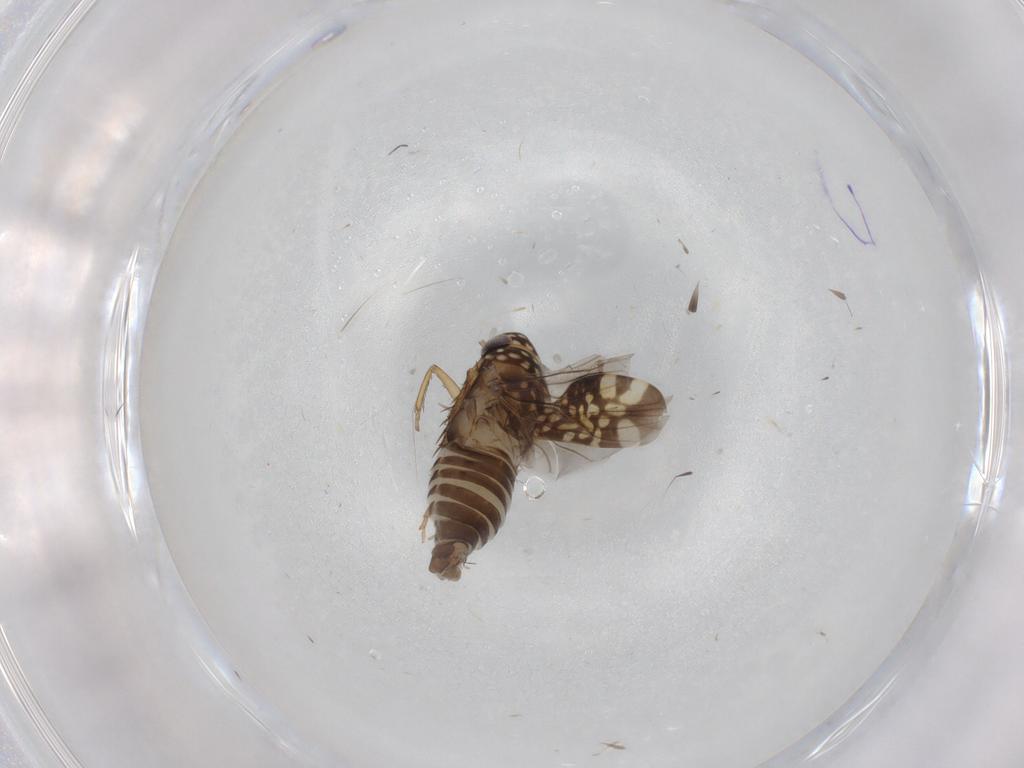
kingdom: Animalia
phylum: Arthropoda
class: Insecta
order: Hemiptera
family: Cicadellidae
